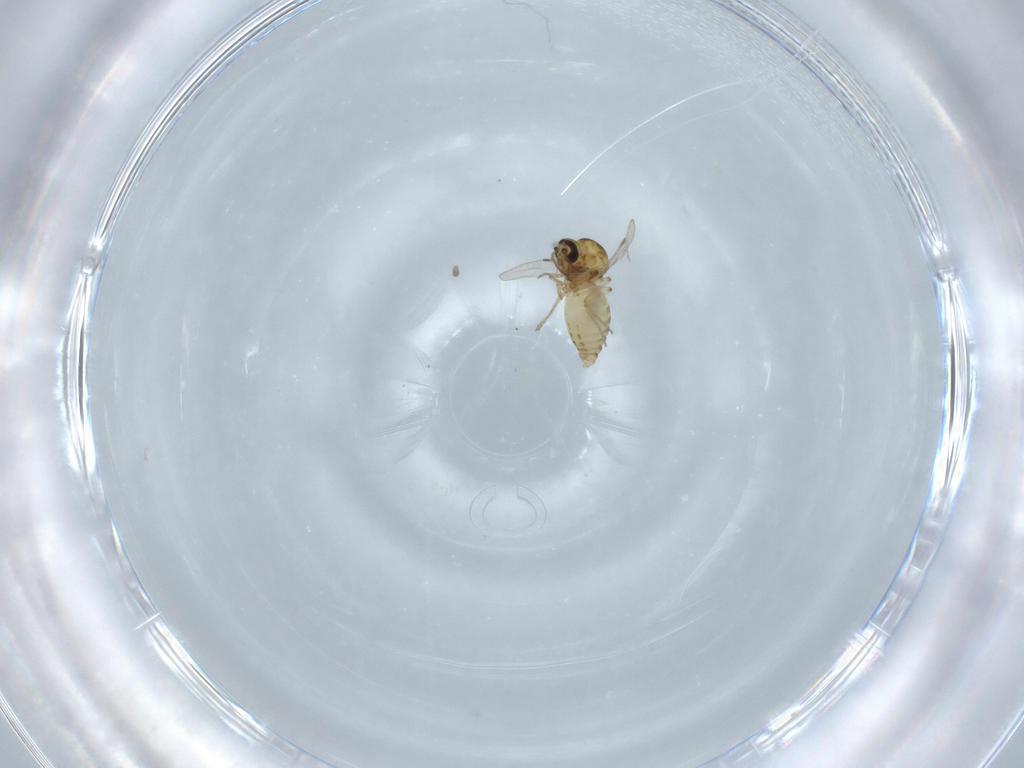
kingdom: Animalia
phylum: Arthropoda
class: Insecta
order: Diptera
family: Ceratopogonidae
